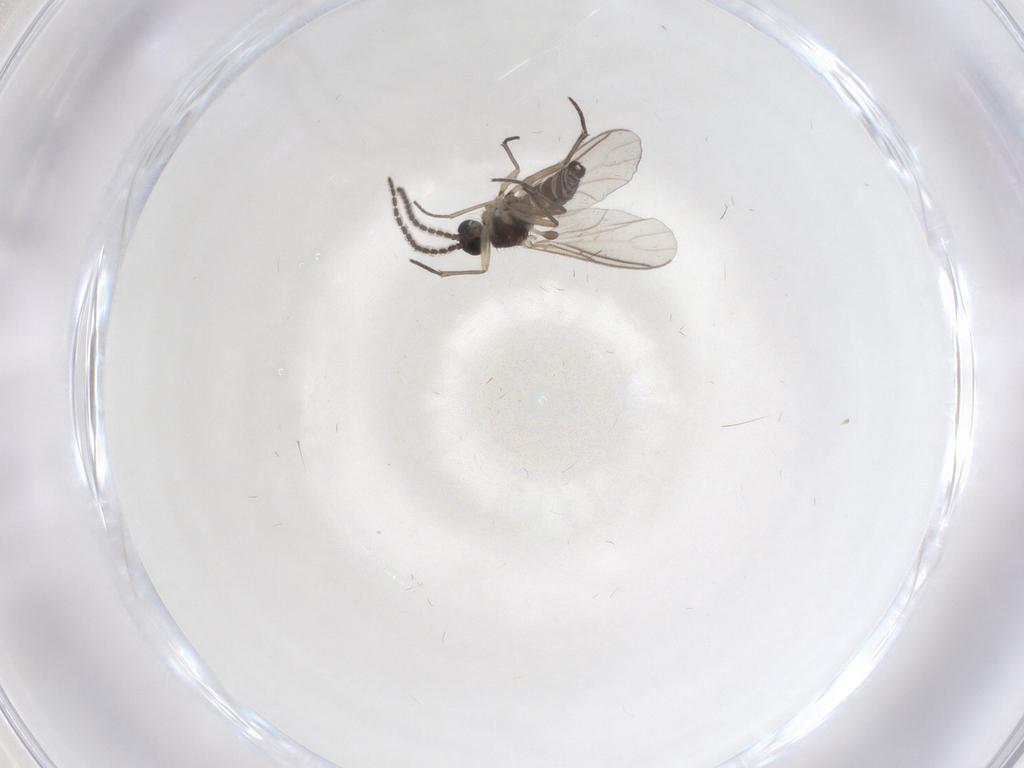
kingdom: Animalia
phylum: Arthropoda
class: Insecta
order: Diptera
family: Sciaridae
